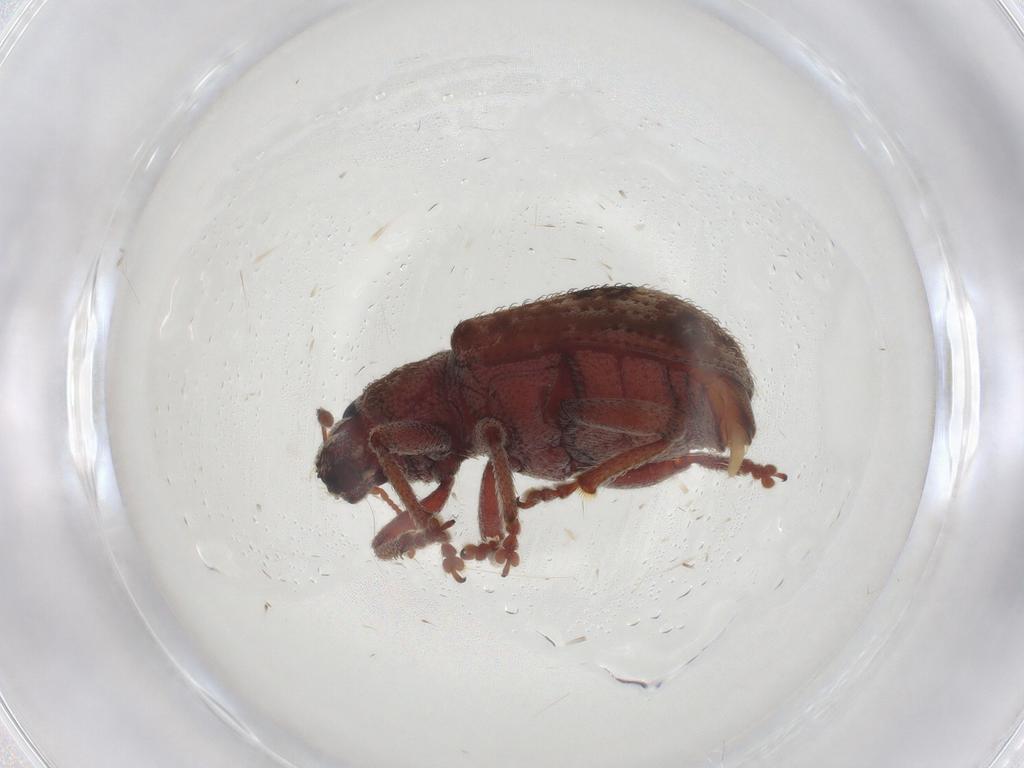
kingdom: Animalia
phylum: Arthropoda
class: Insecta
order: Coleoptera
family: Curculionidae
